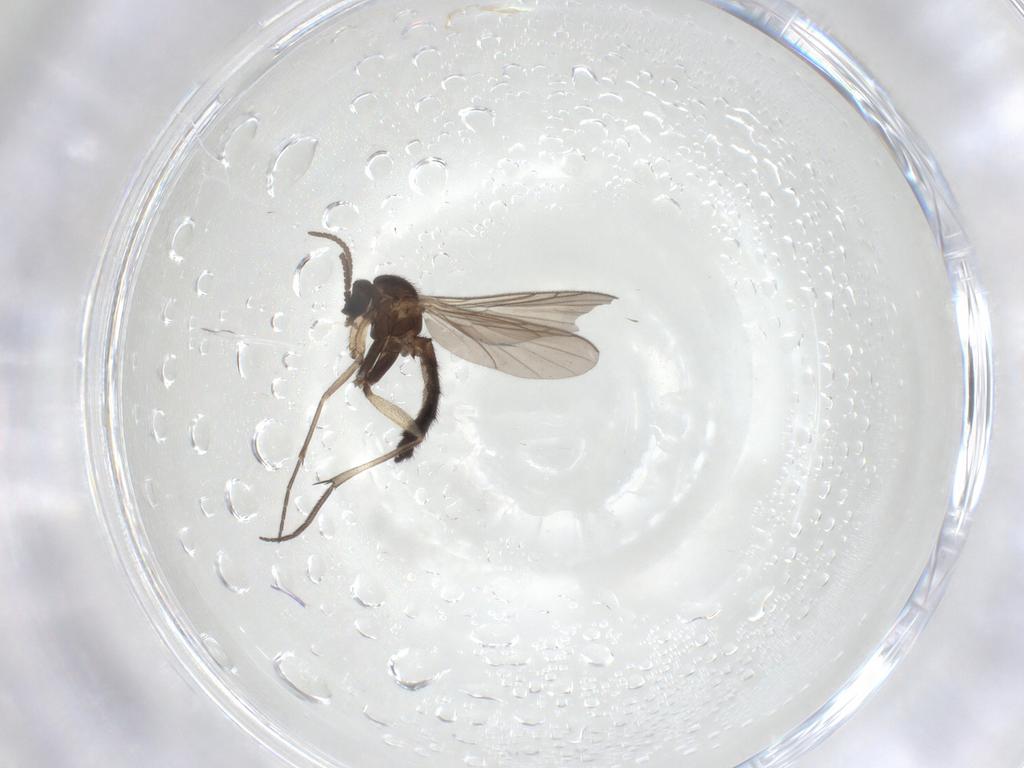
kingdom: Animalia
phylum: Arthropoda
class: Insecta
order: Diptera
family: Keroplatidae
